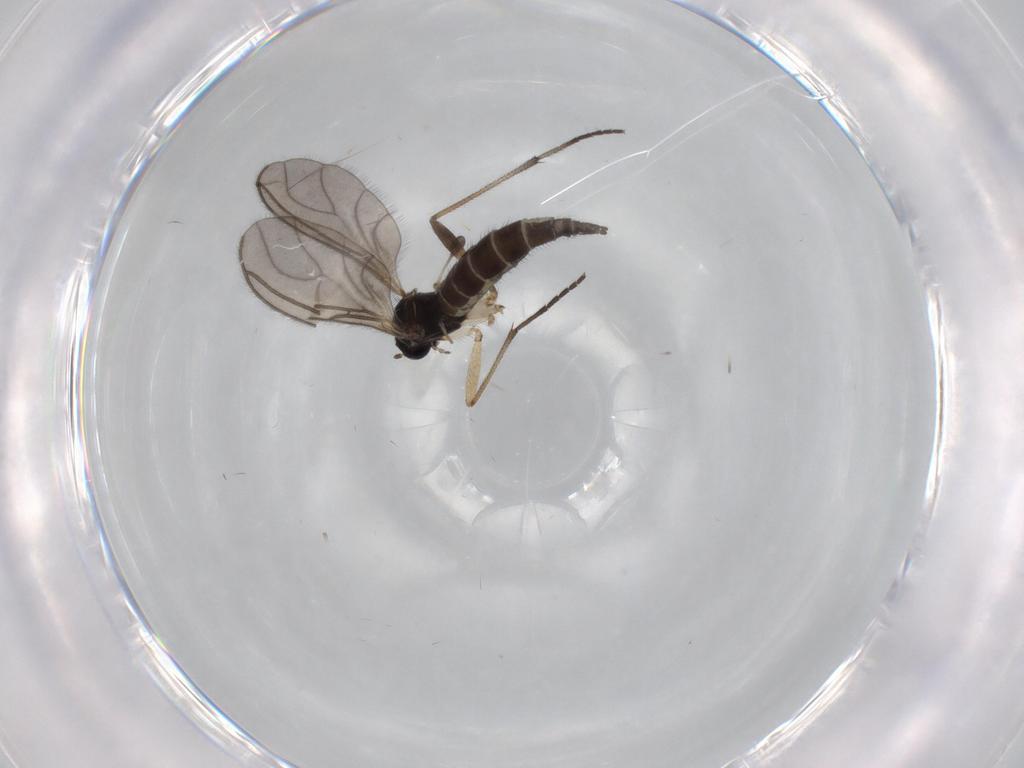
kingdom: Animalia
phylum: Arthropoda
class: Insecta
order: Diptera
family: Sciaridae
